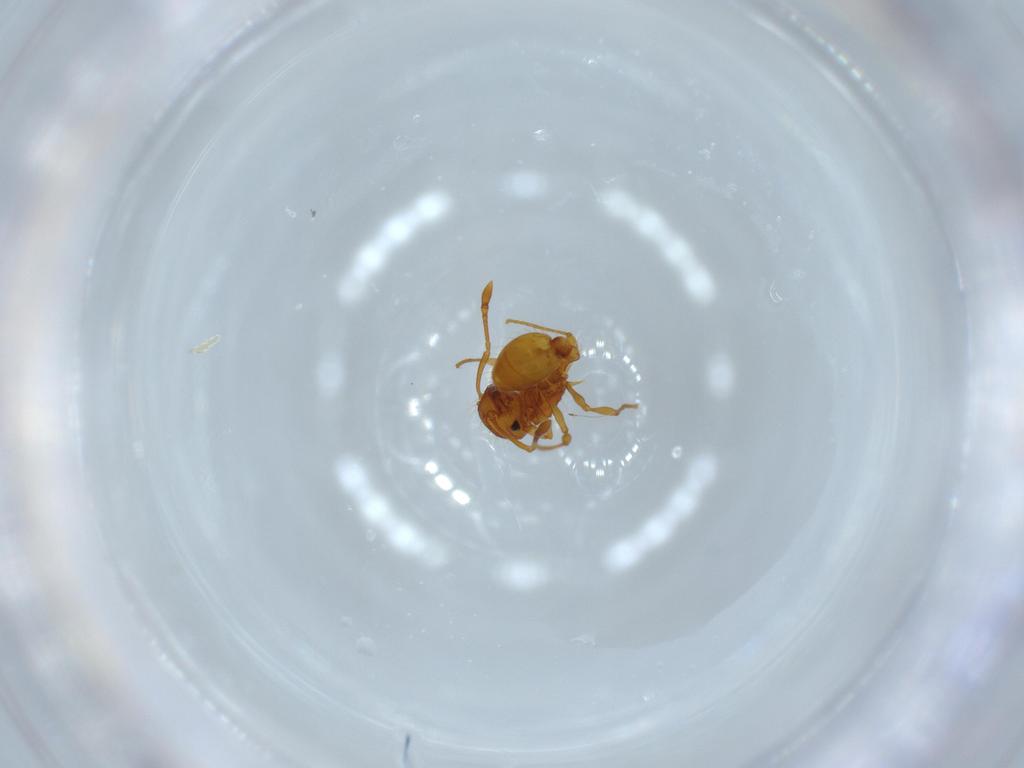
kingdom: Animalia
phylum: Arthropoda
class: Insecta
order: Hymenoptera
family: Formicidae
